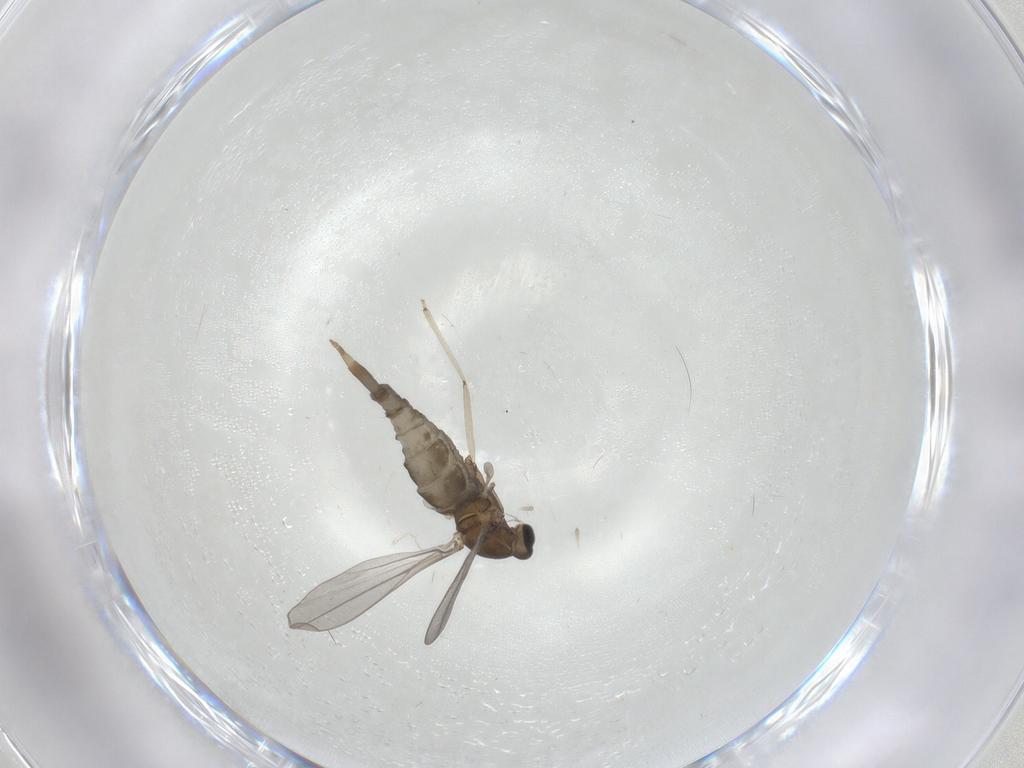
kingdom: Animalia
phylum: Arthropoda
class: Insecta
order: Diptera
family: Cecidomyiidae
